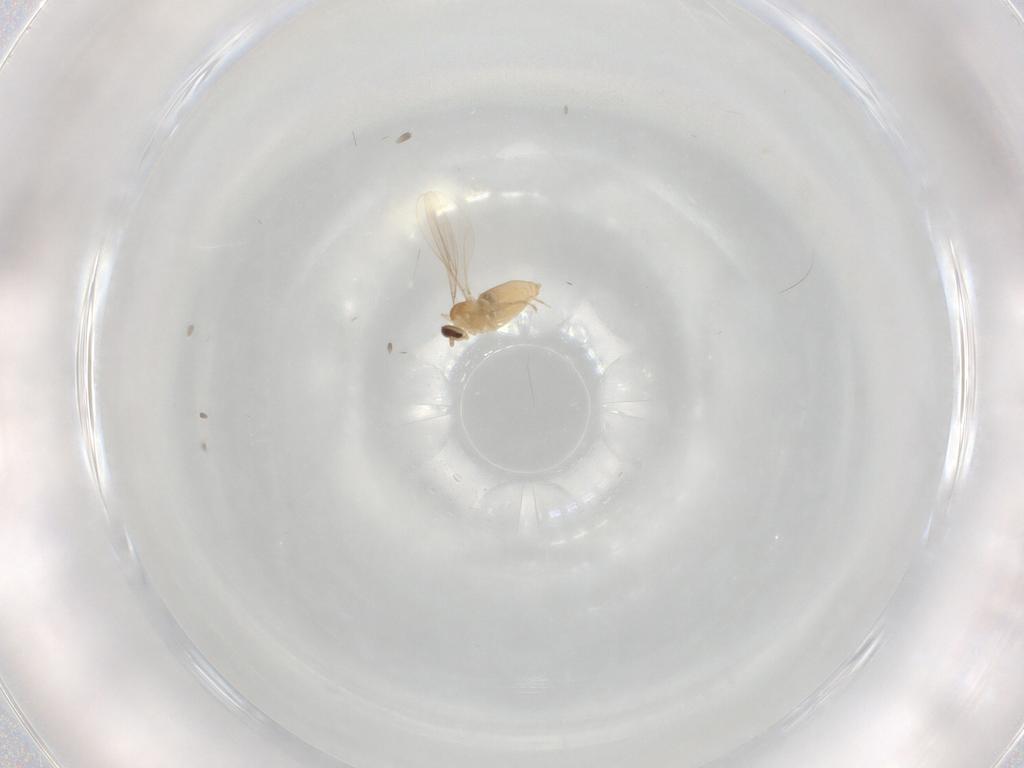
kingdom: Animalia
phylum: Arthropoda
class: Insecta
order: Diptera
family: Cecidomyiidae
